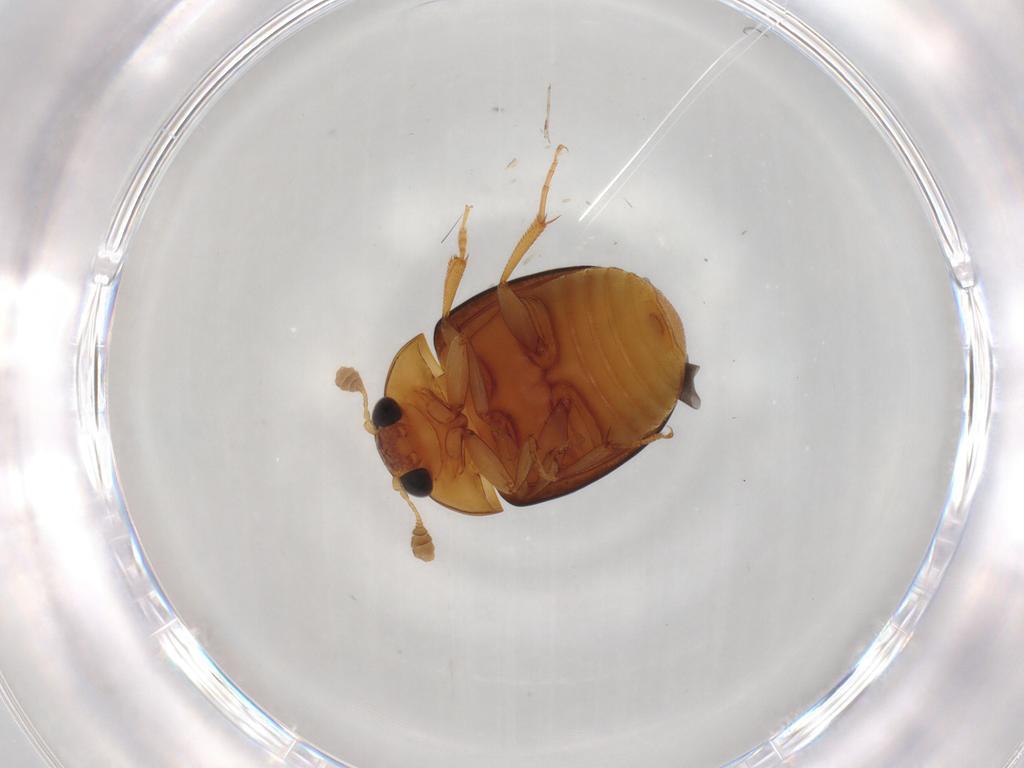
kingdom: Animalia
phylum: Arthropoda
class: Insecta
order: Coleoptera
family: Nitidulidae
